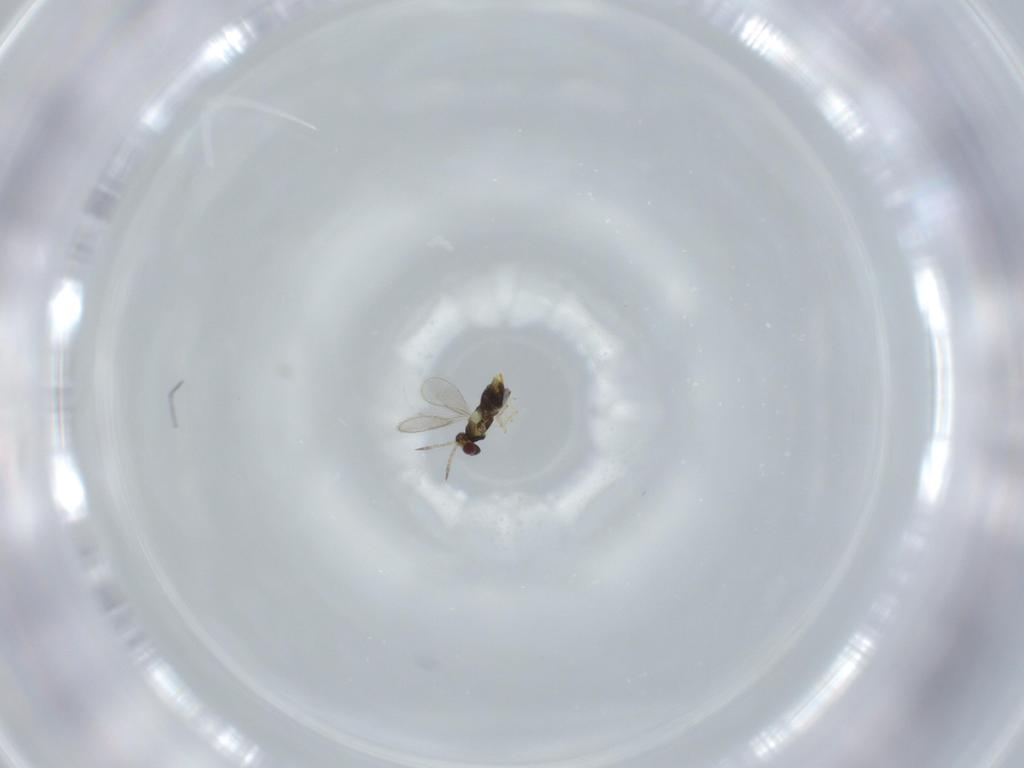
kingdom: Animalia
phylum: Arthropoda
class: Insecta
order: Hymenoptera
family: Aphelinidae
